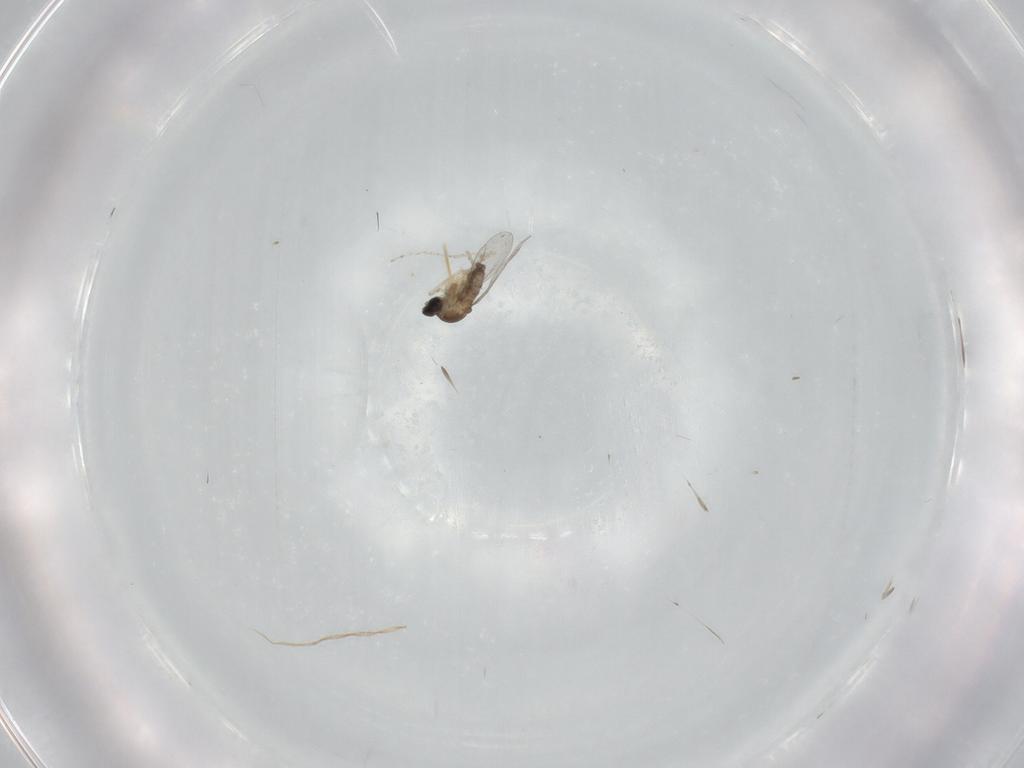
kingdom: Animalia
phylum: Arthropoda
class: Insecta
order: Diptera
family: Cecidomyiidae
